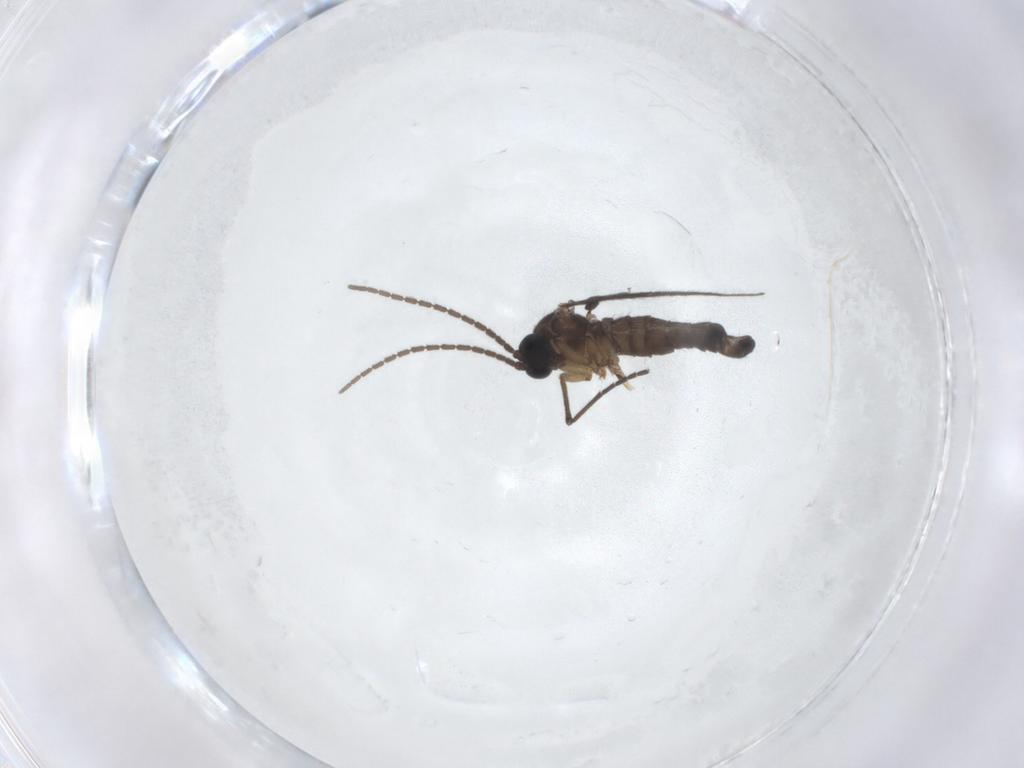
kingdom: Animalia
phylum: Arthropoda
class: Insecta
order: Diptera
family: Sciaridae
